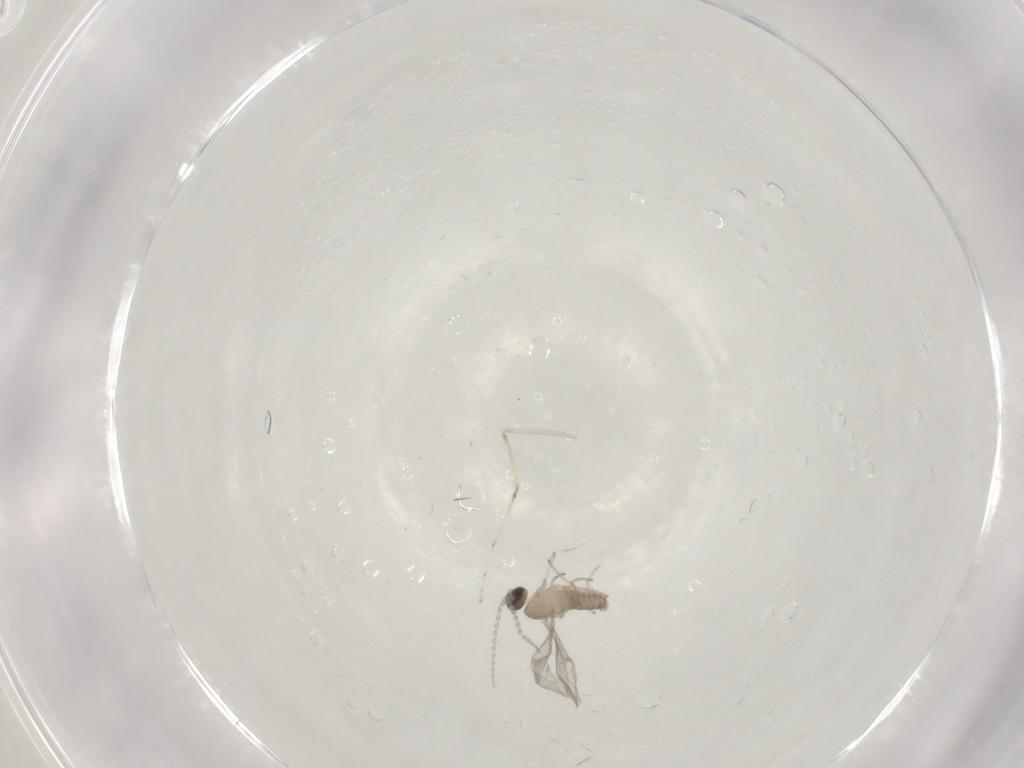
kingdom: Animalia
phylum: Arthropoda
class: Insecta
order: Diptera
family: Cecidomyiidae
